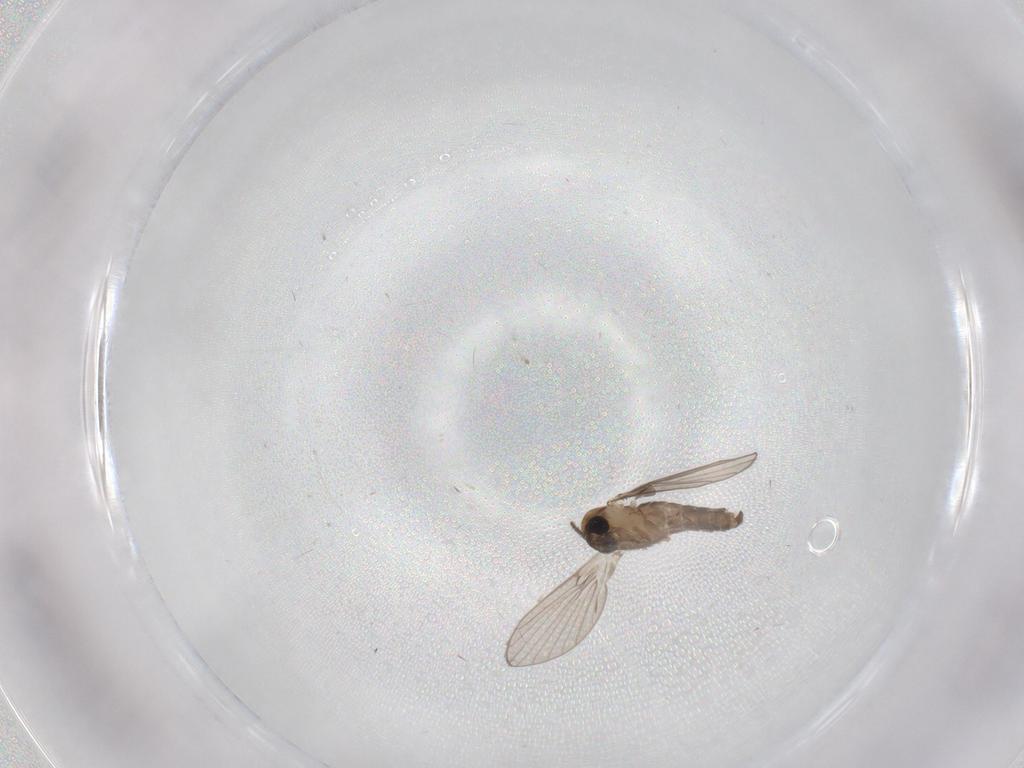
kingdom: Animalia
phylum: Arthropoda
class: Insecta
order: Diptera
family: Psychodidae
